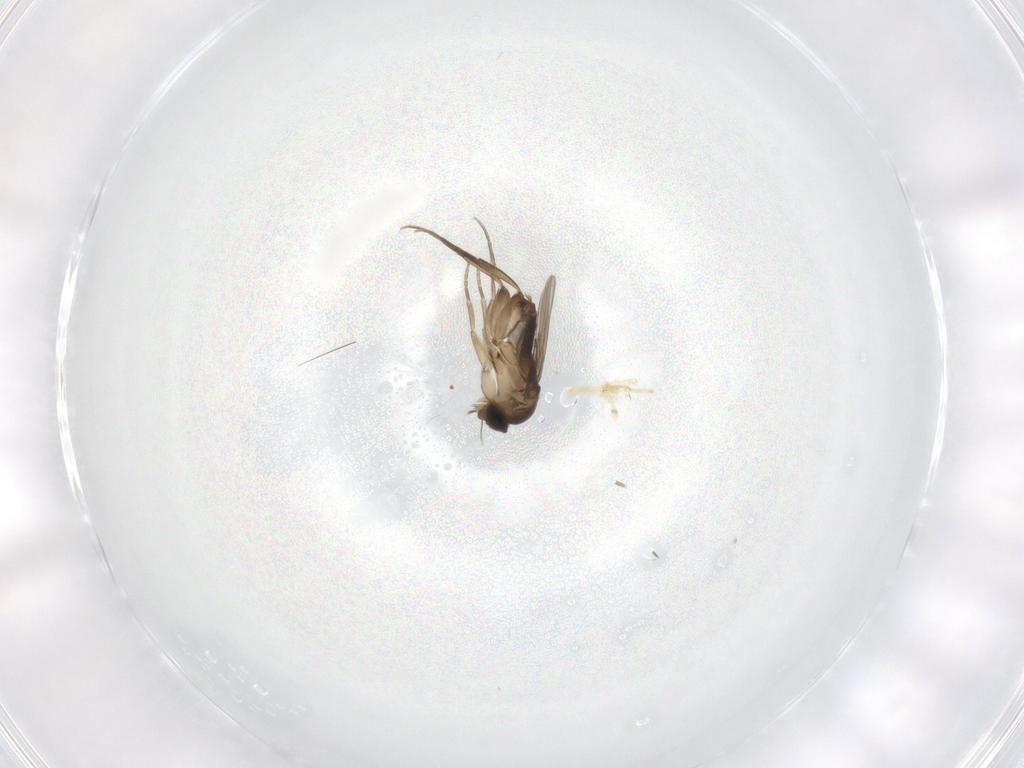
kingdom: Animalia
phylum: Arthropoda
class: Insecta
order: Diptera
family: Phoridae
